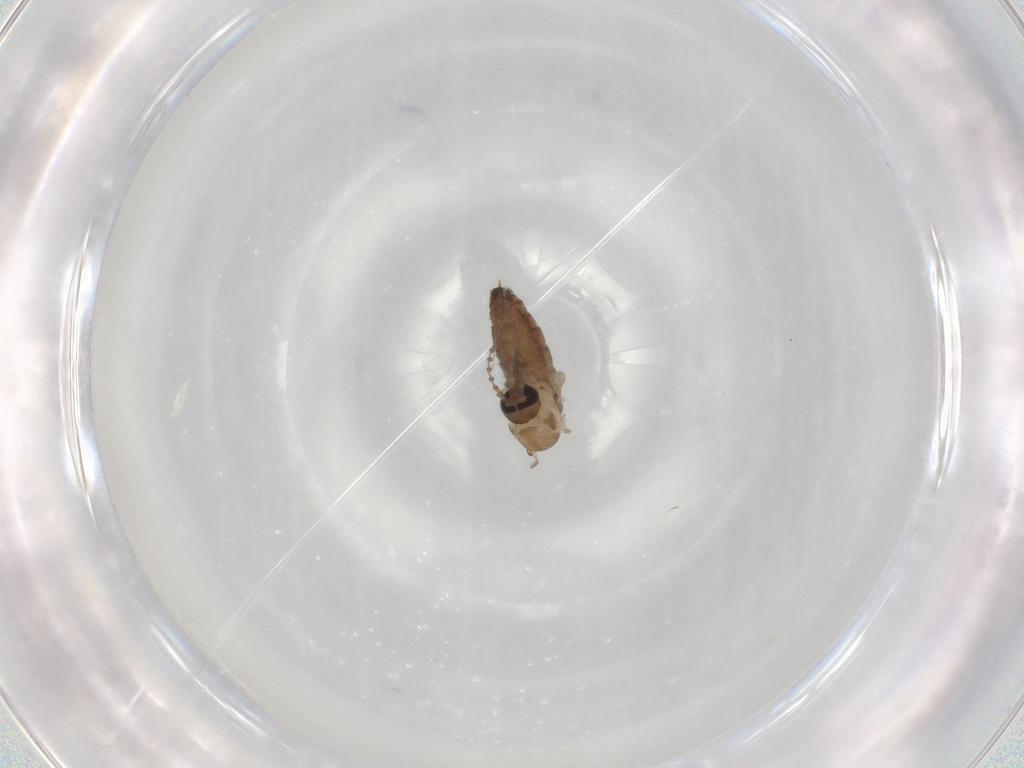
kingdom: Animalia
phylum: Arthropoda
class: Insecta
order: Diptera
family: Psychodidae
